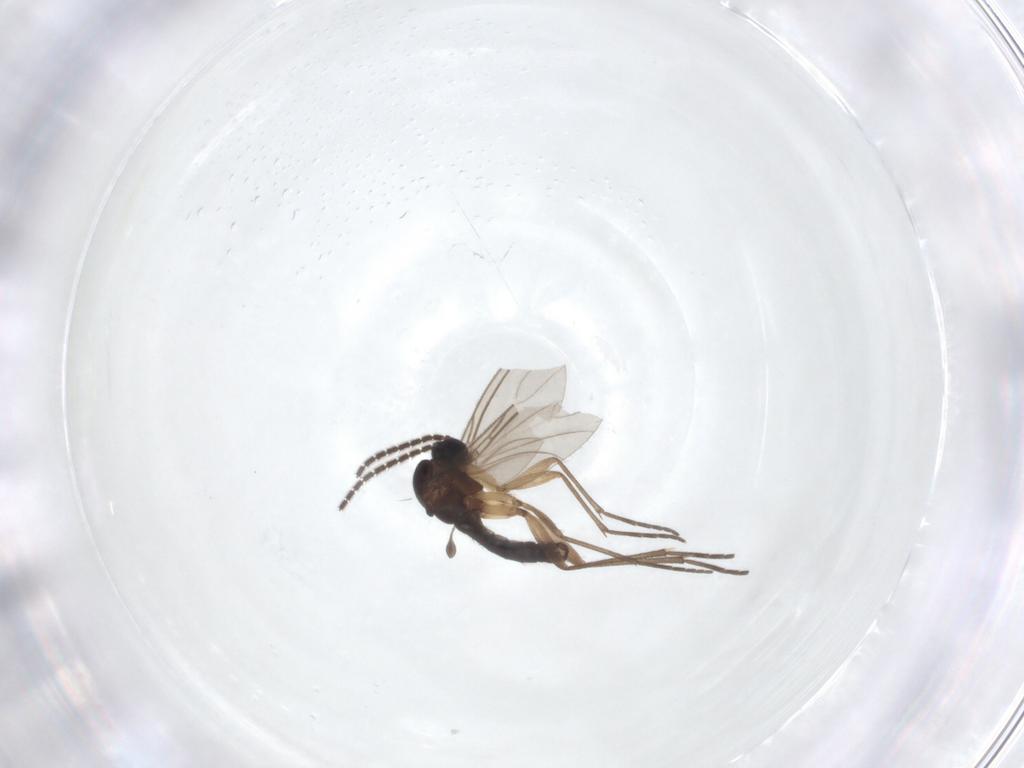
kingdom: Animalia
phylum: Arthropoda
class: Insecta
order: Diptera
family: Sciaridae
